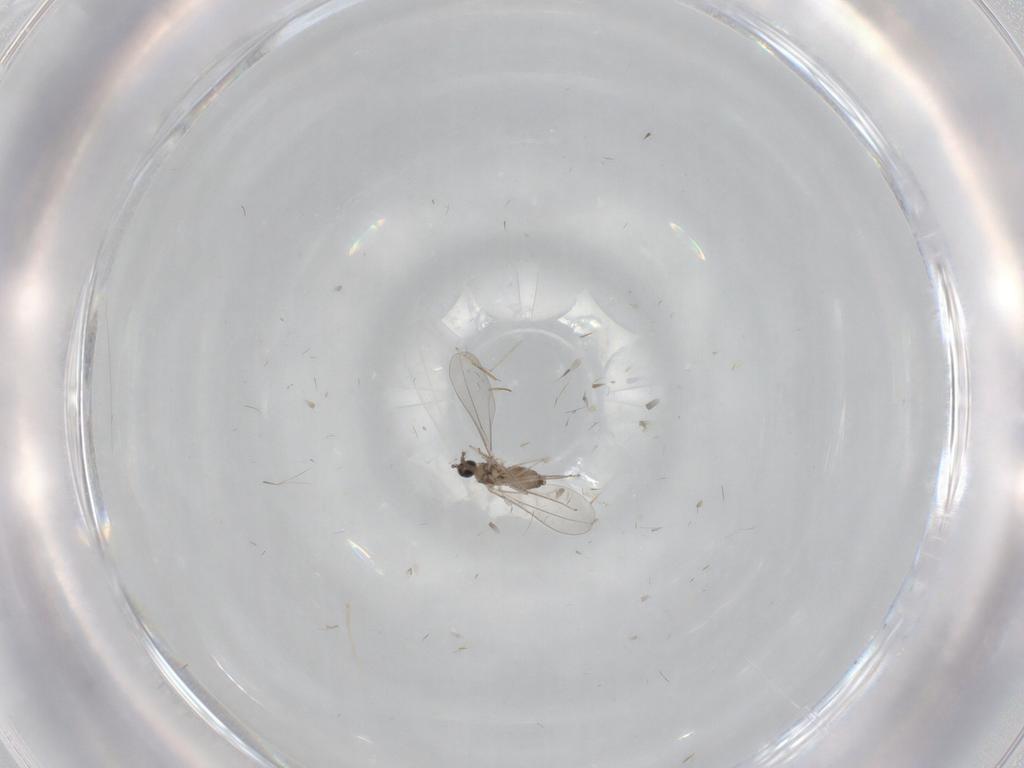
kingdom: Animalia
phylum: Arthropoda
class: Insecta
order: Diptera
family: Cecidomyiidae
